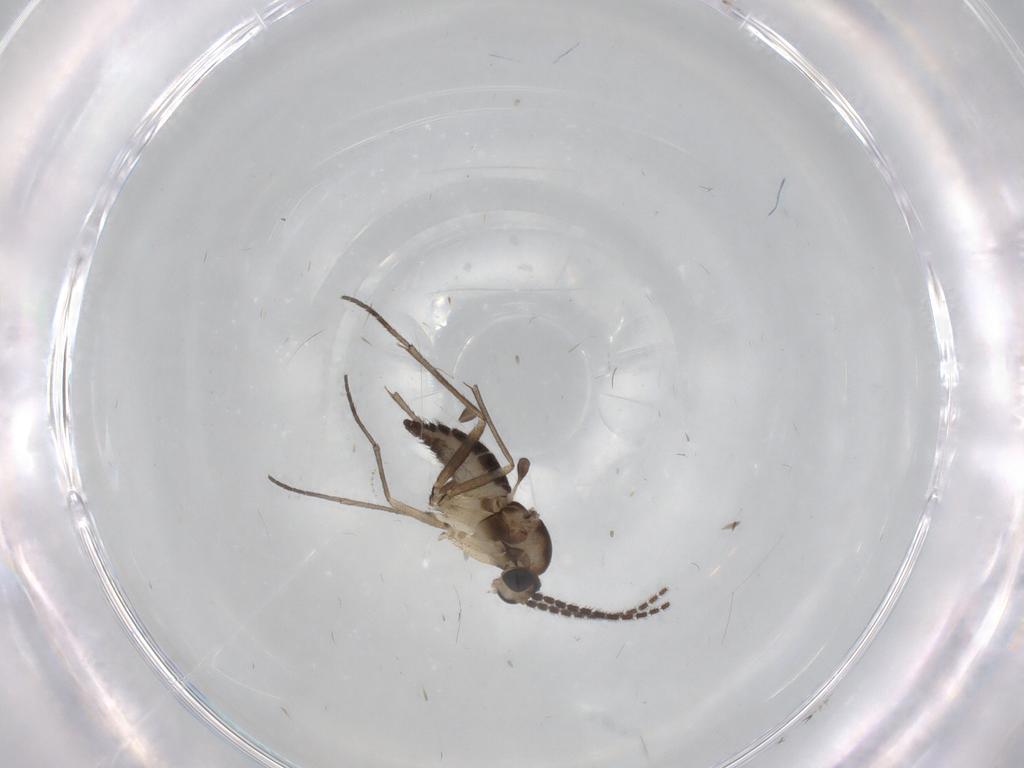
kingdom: Animalia
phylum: Arthropoda
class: Insecta
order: Diptera
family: Sciaridae
